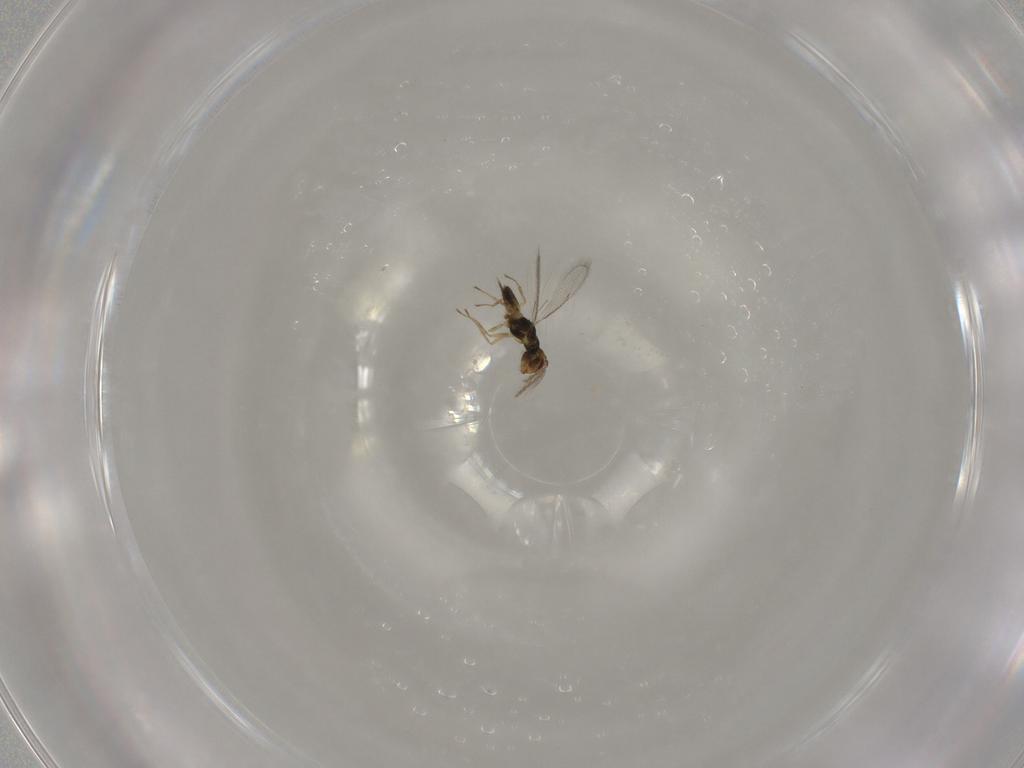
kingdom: Animalia
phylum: Arthropoda
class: Insecta
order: Hymenoptera
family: Eulophidae
